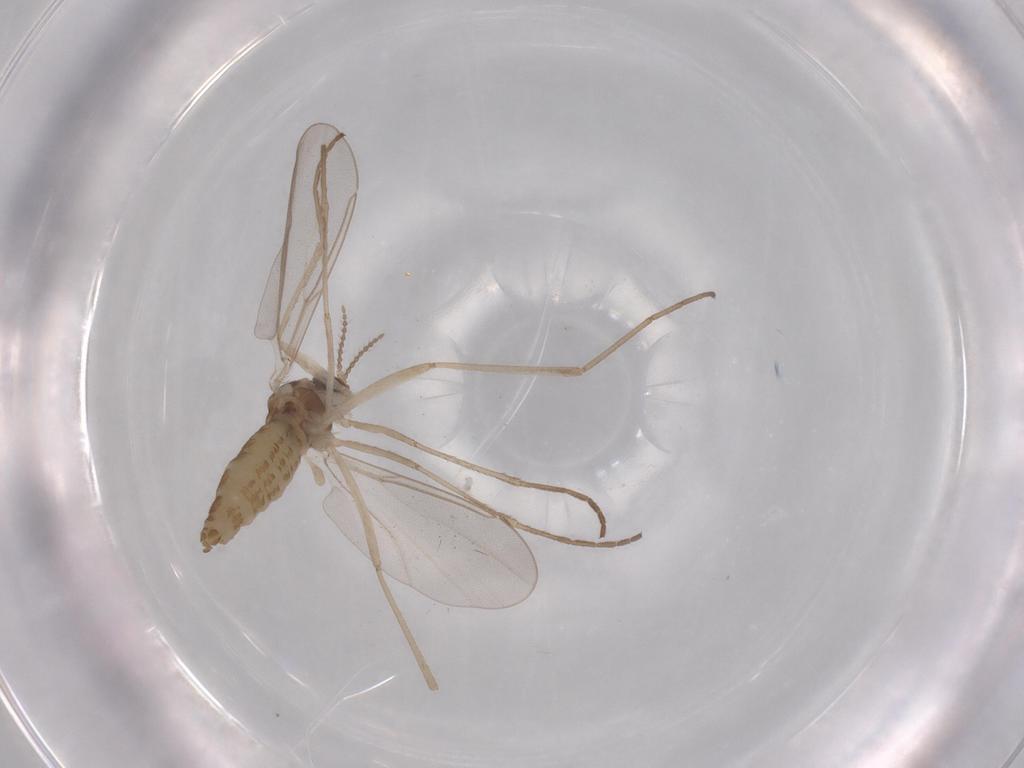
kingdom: Animalia
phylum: Arthropoda
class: Insecta
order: Diptera
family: Cecidomyiidae
